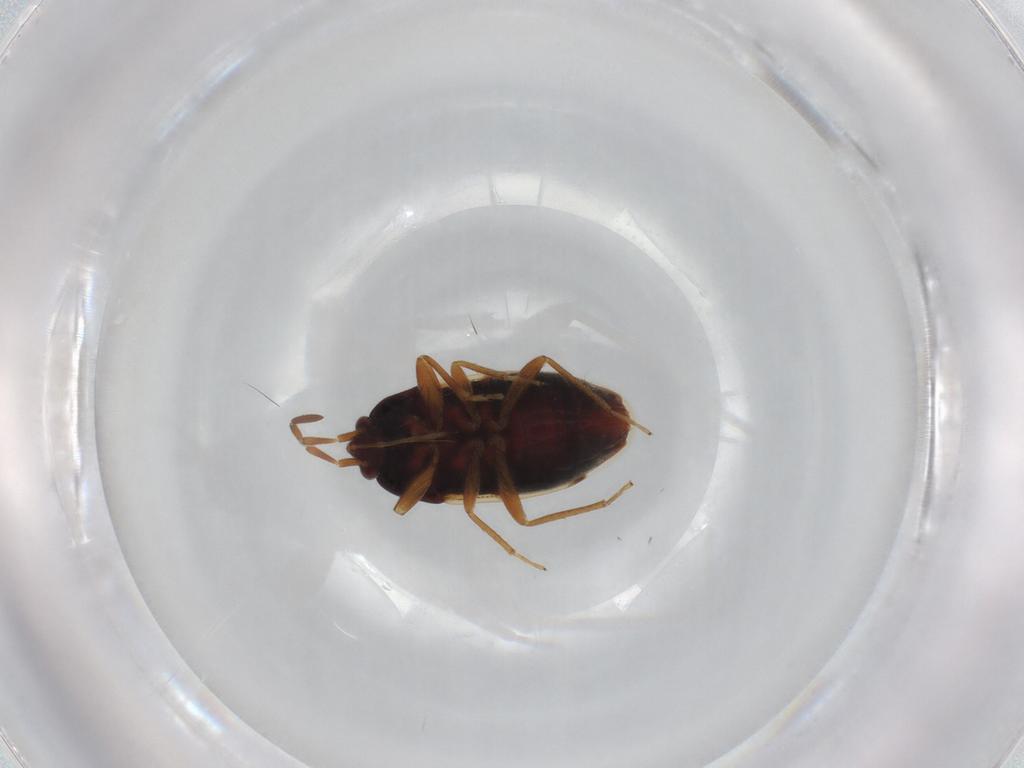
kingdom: Animalia
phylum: Arthropoda
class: Insecta
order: Hemiptera
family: Rhyparochromidae
